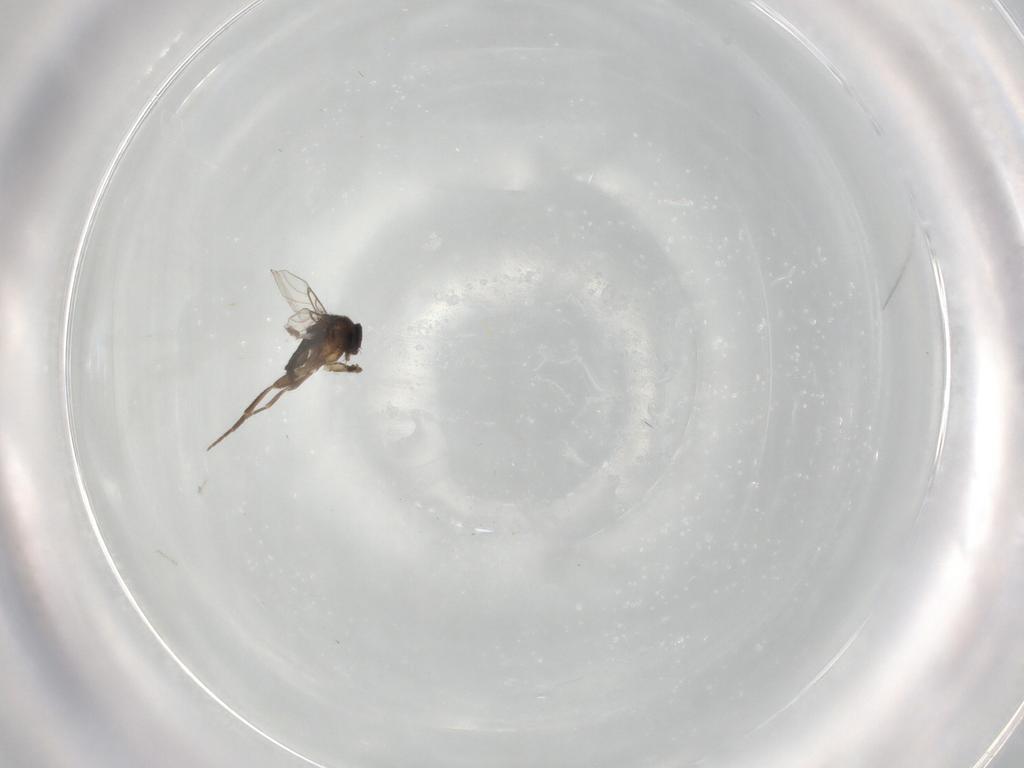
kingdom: Animalia
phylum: Arthropoda
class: Insecta
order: Diptera
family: Phoridae
